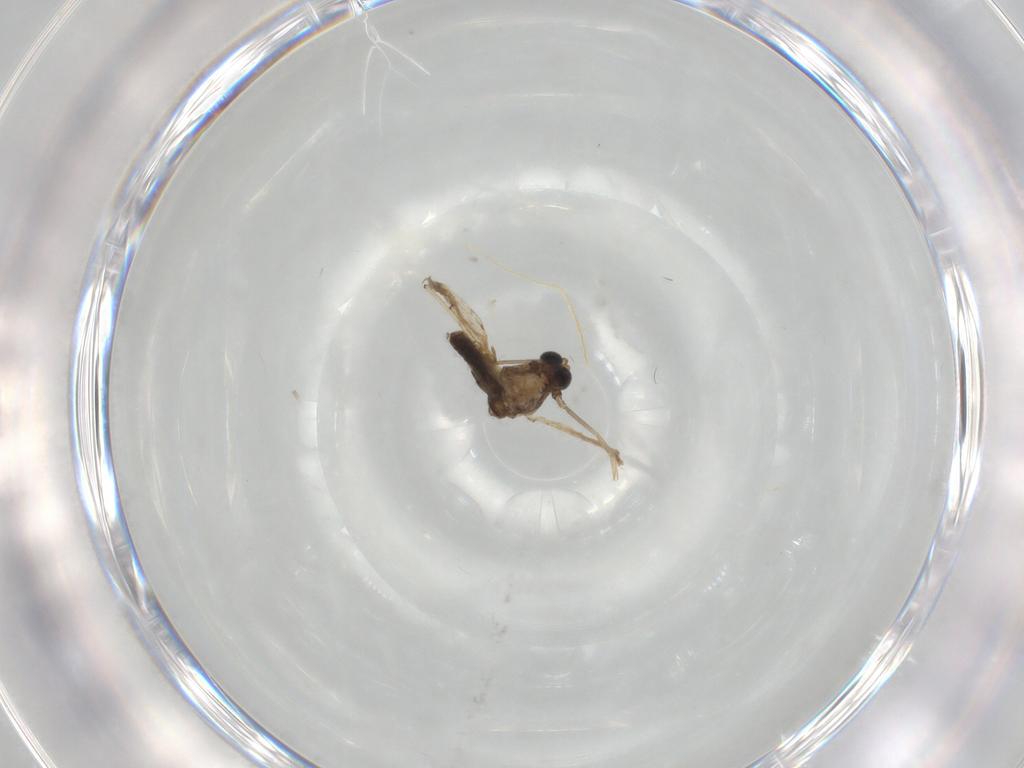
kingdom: Animalia
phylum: Arthropoda
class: Insecta
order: Diptera
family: Chironomidae
